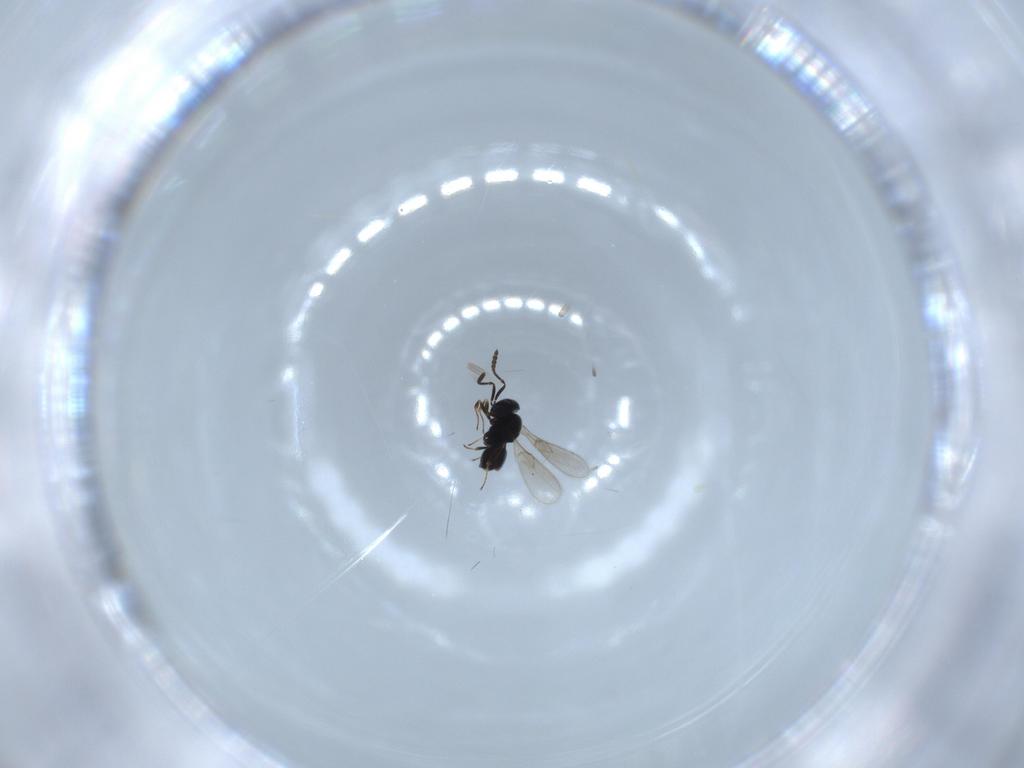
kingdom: Animalia
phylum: Arthropoda
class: Insecta
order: Hymenoptera
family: Scelionidae
